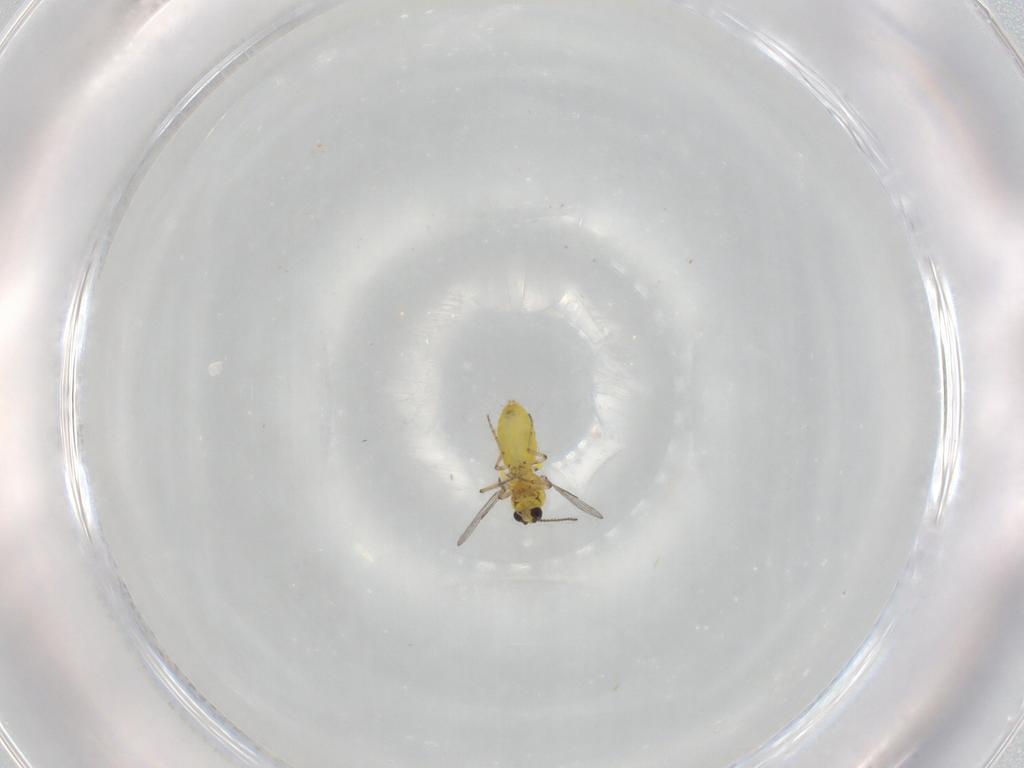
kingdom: Animalia
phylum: Arthropoda
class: Insecta
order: Diptera
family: Ceratopogonidae
